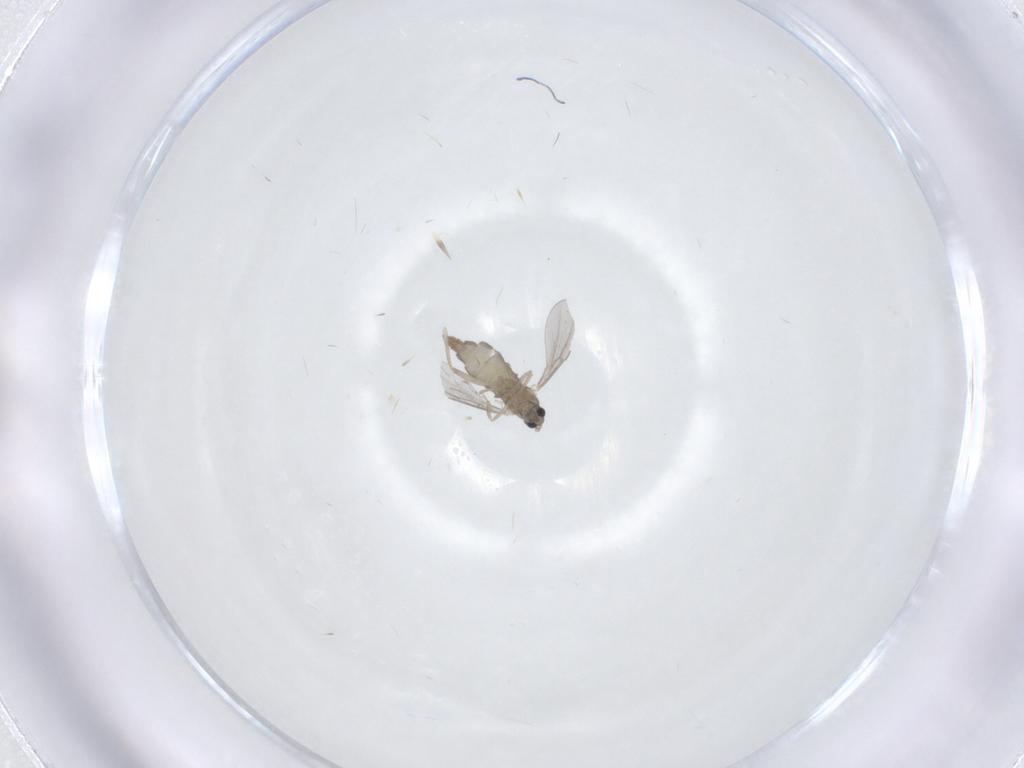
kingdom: Animalia
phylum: Arthropoda
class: Insecta
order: Diptera
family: Cecidomyiidae
